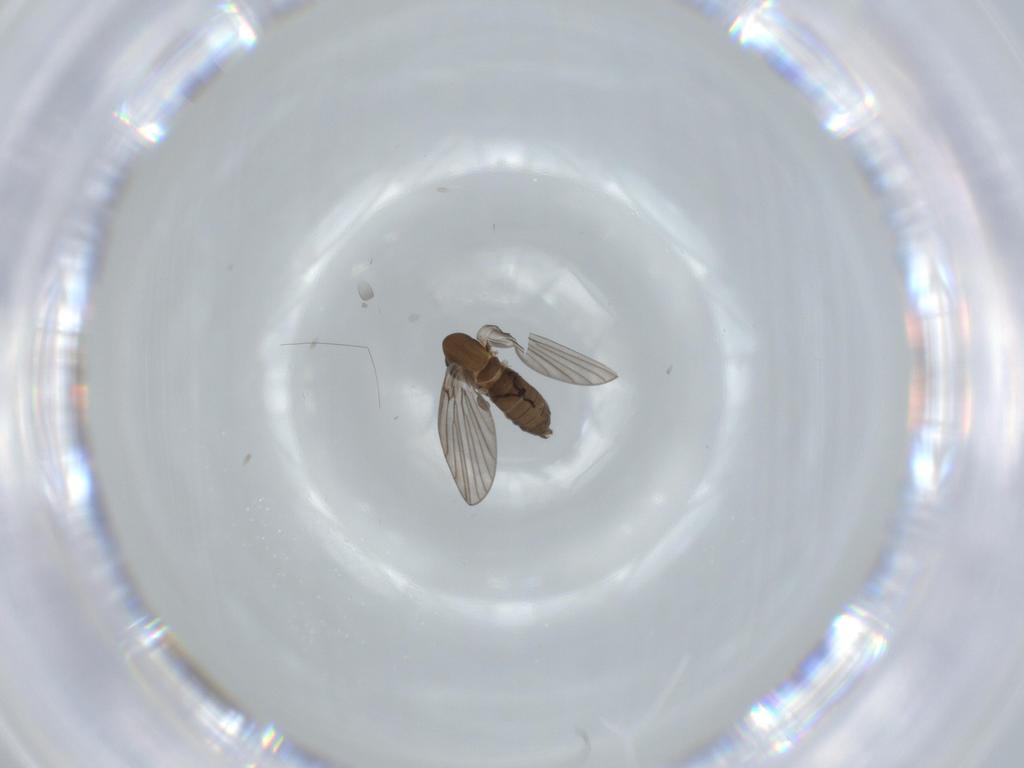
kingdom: Animalia
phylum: Arthropoda
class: Insecta
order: Diptera
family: Psychodidae
